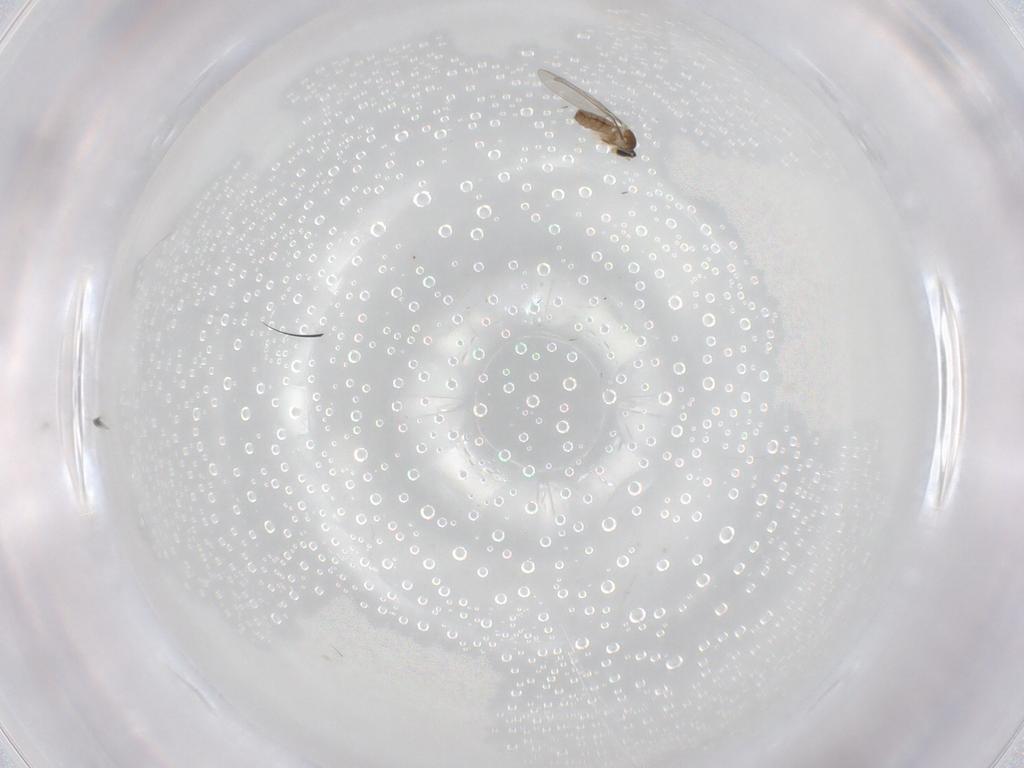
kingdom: Animalia
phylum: Arthropoda
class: Insecta
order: Diptera
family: Cecidomyiidae
